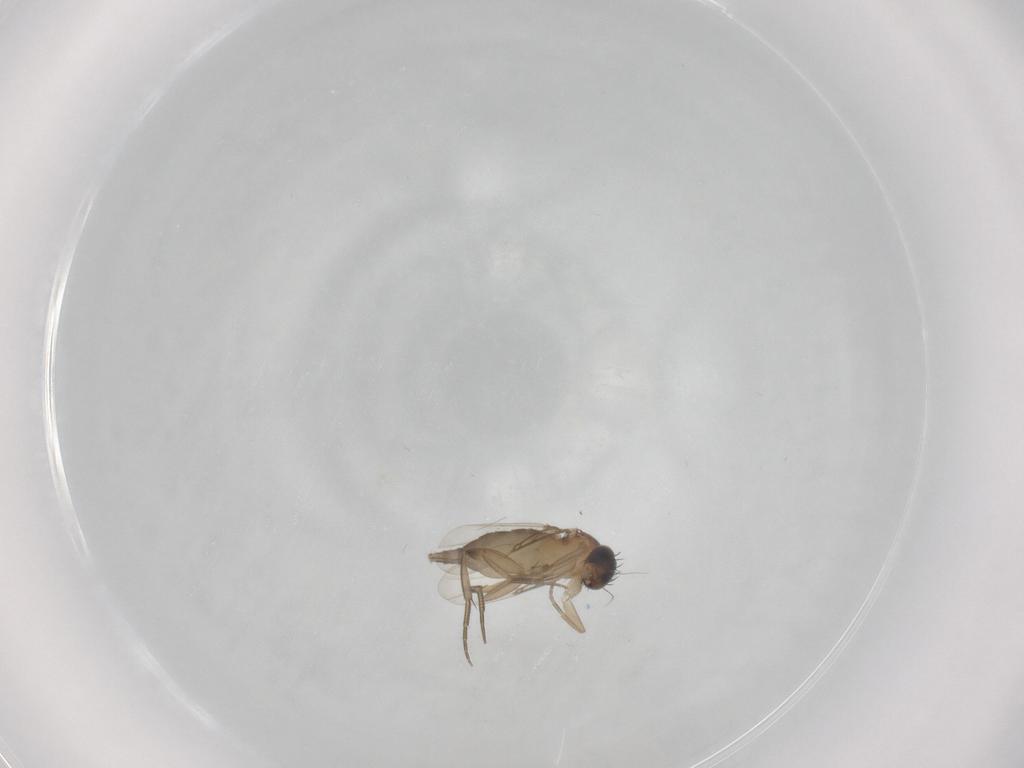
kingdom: Animalia
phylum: Arthropoda
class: Insecta
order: Diptera
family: Phoridae
